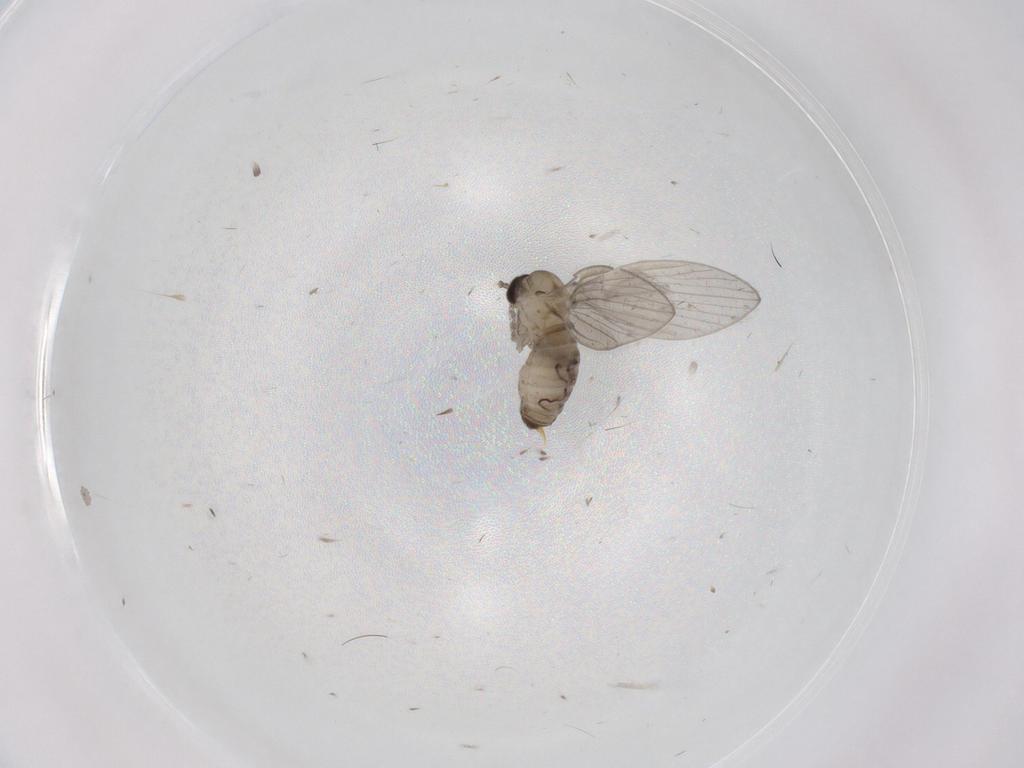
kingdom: Animalia
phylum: Arthropoda
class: Insecta
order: Diptera
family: Psychodidae
